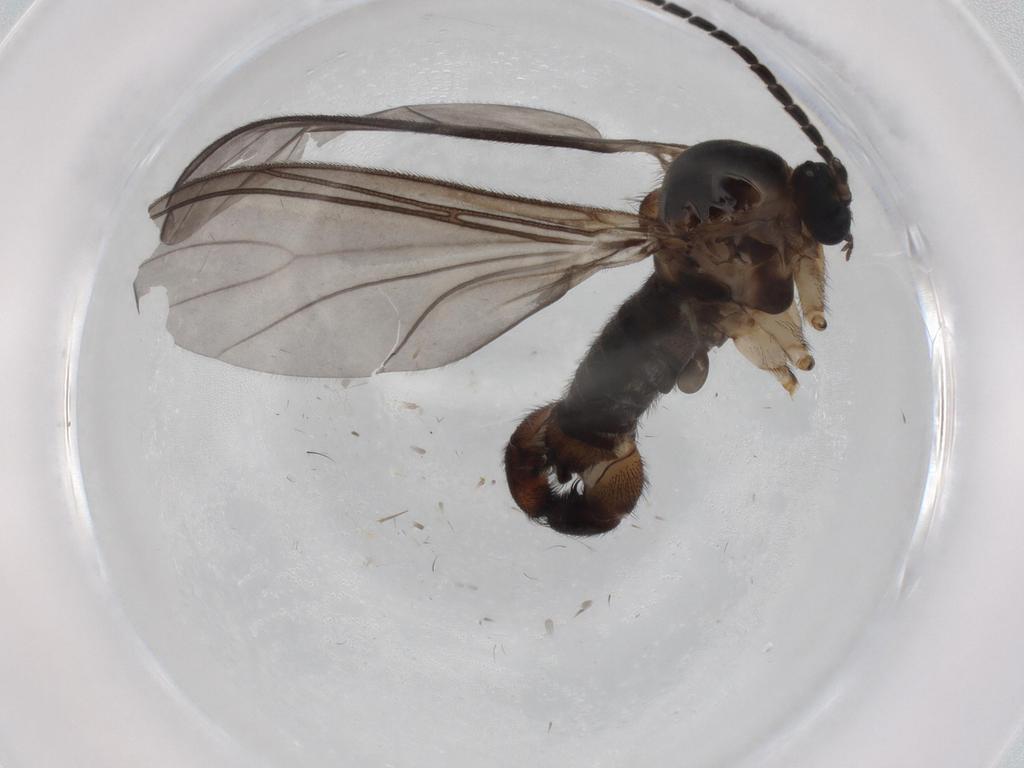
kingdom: Animalia
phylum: Arthropoda
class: Insecta
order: Diptera
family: Sciaridae
